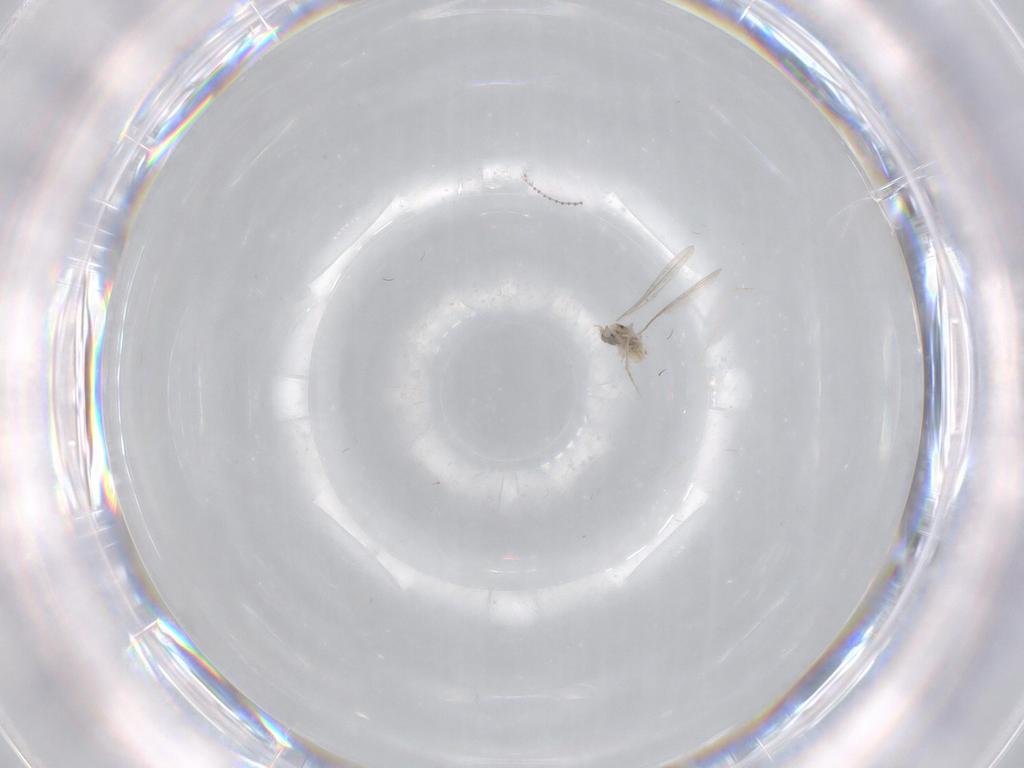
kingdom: Animalia
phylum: Arthropoda
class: Insecta
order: Diptera
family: Cecidomyiidae
